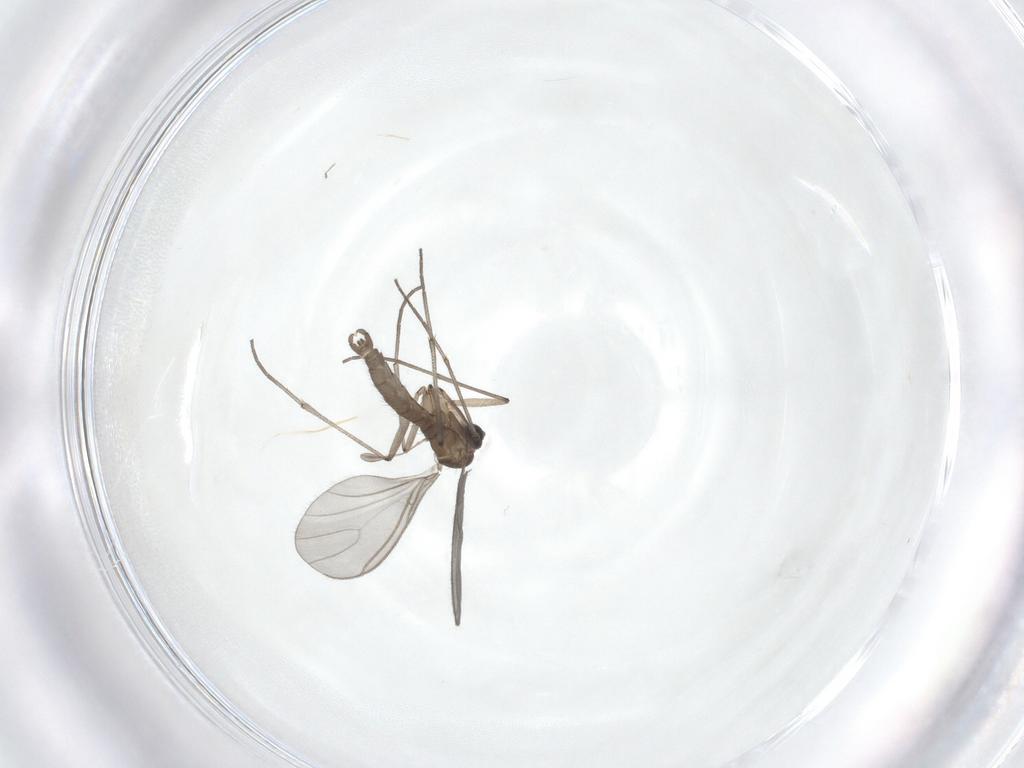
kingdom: Animalia
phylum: Arthropoda
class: Insecta
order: Diptera
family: Sciaridae
